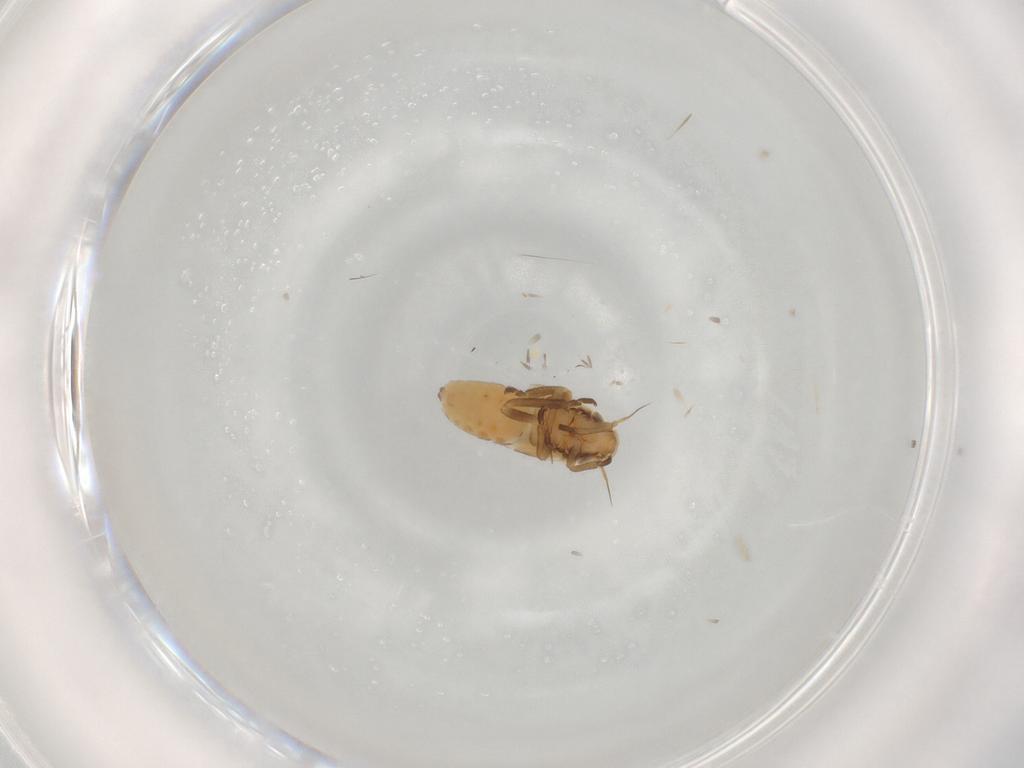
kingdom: Animalia
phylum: Arthropoda
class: Insecta
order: Hemiptera
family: Cicadellidae
